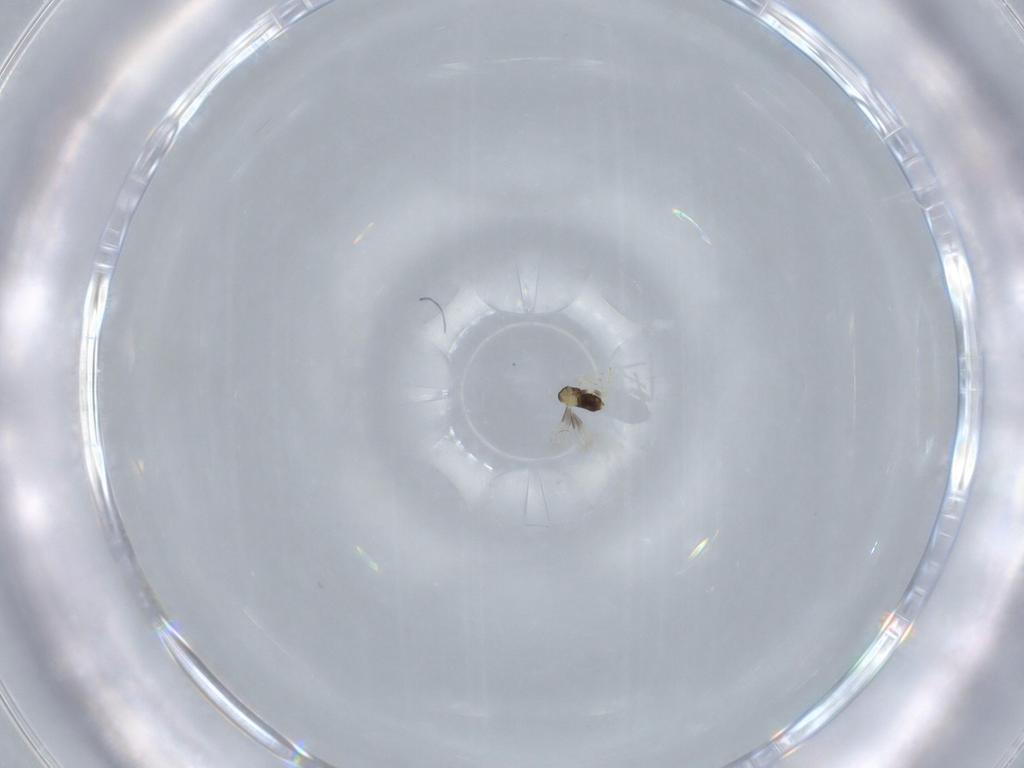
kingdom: Animalia
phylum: Arthropoda
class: Insecta
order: Hymenoptera
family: Aphelinidae
